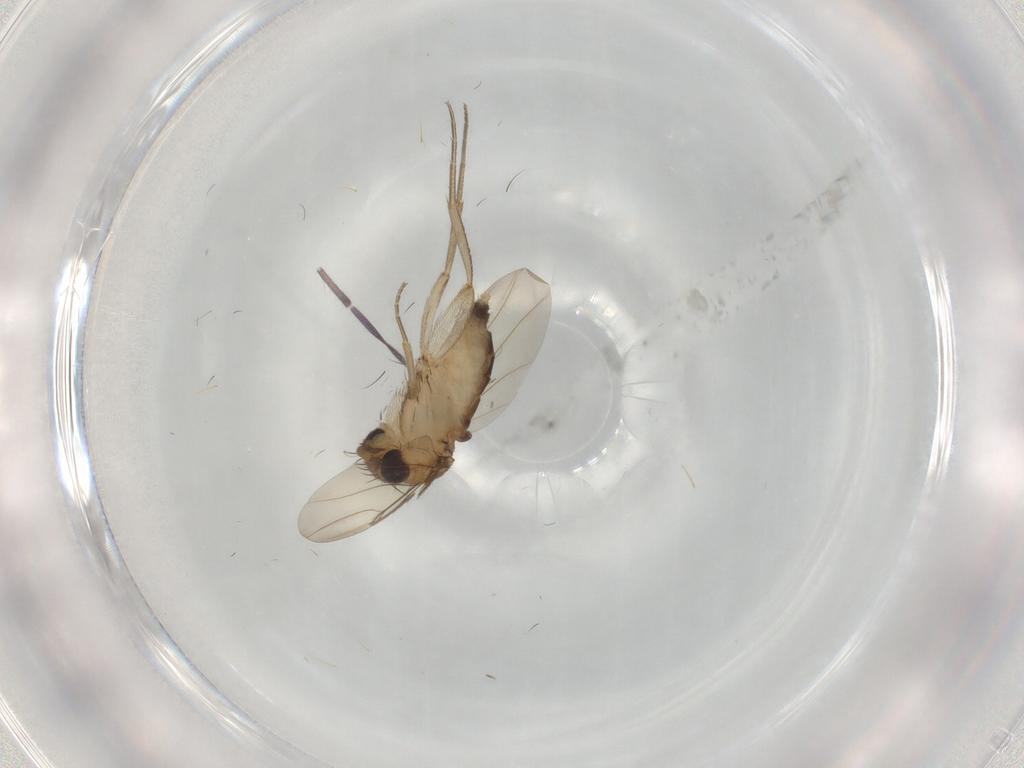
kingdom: Animalia
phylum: Arthropoda
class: Insecta
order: Diptera
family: Phoridae
